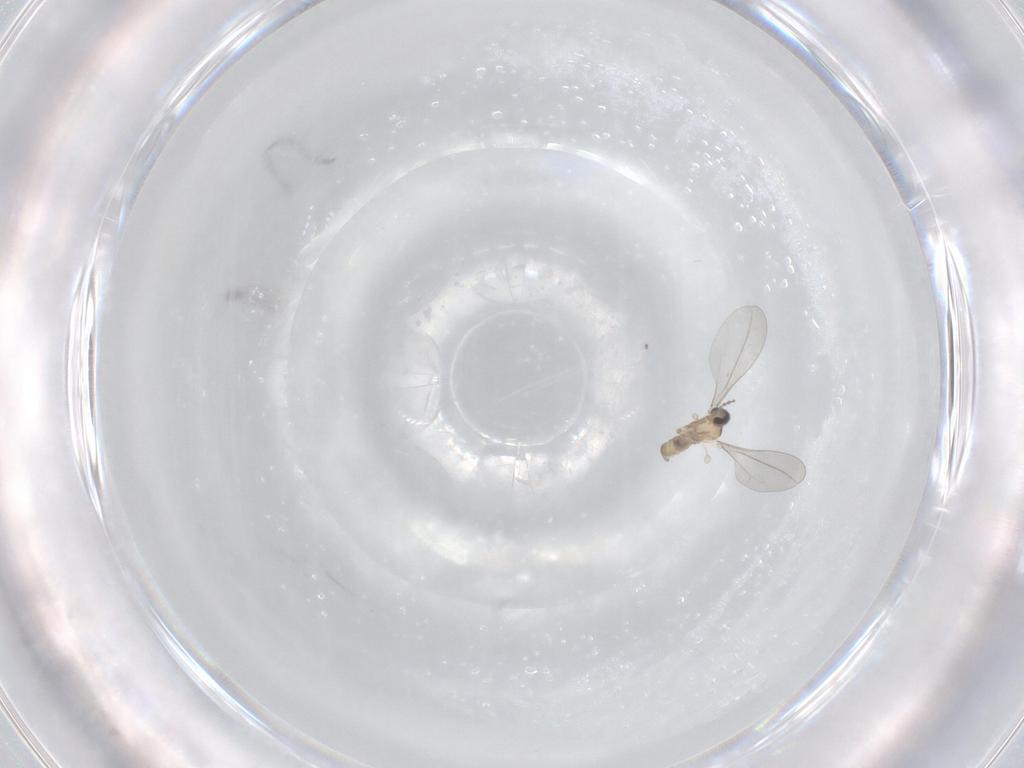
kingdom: Animalia
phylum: Arthropoda
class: Insecta
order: Diptera
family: Cecidomyiidae
